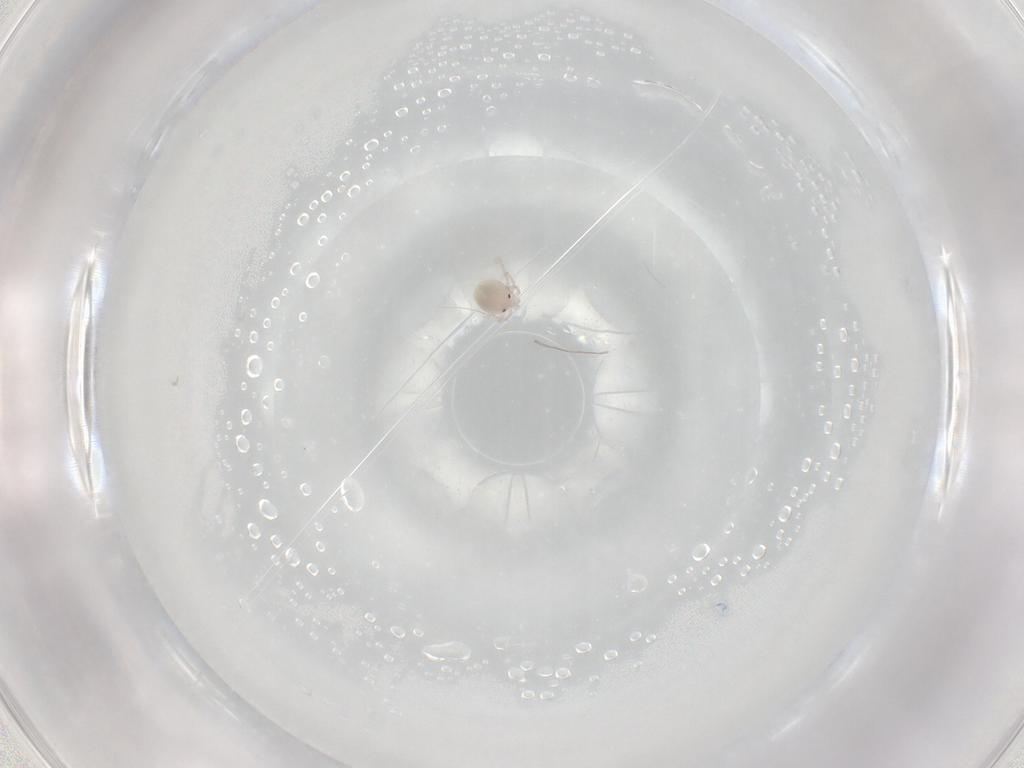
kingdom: Animalia
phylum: Arthropoda
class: Arachnida
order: Trombidiformes
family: Lebertiidae
